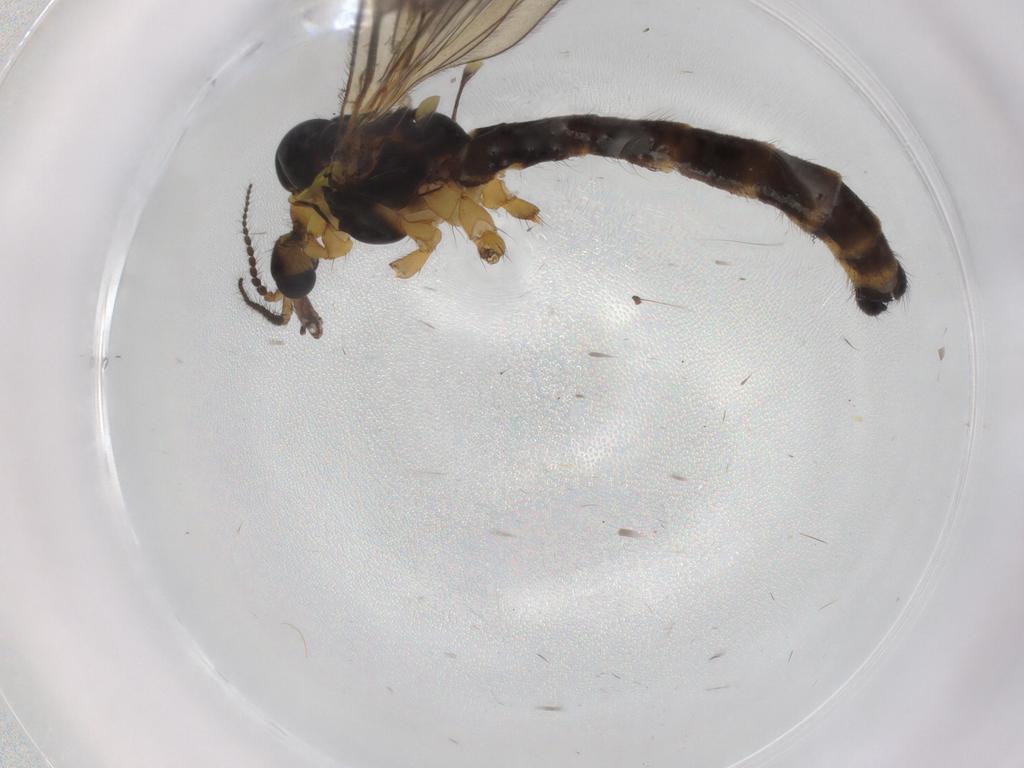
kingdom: Animalia
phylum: Arthropoda
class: Insecta
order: Diptera
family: Limoniidae
